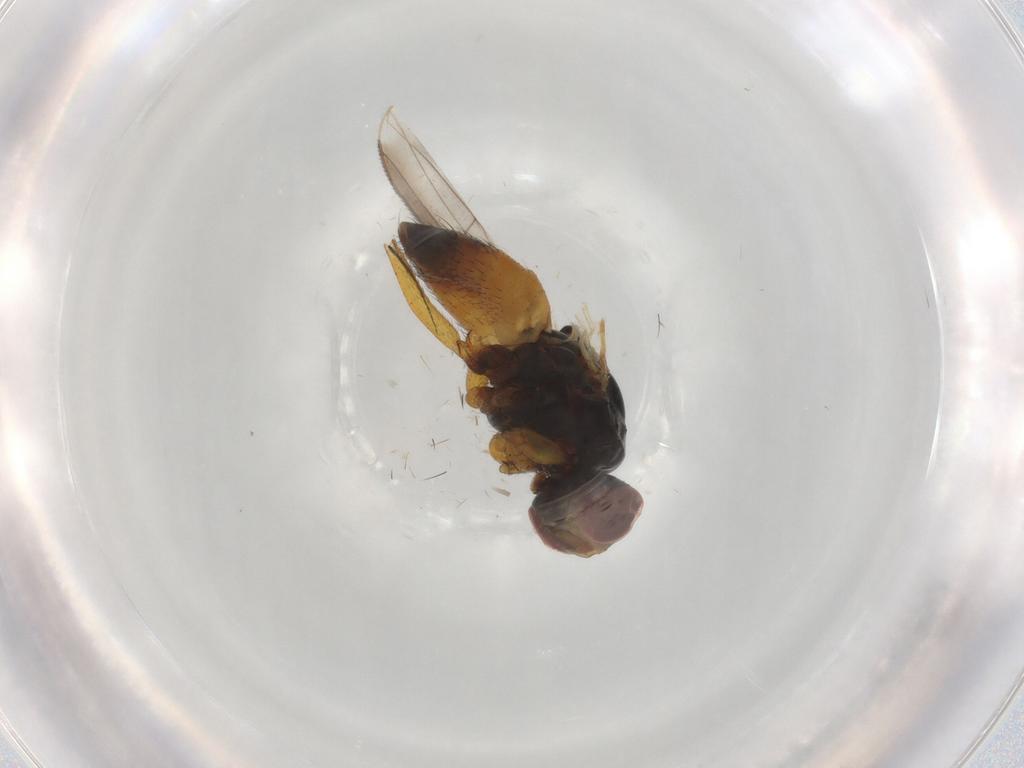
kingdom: Animalia
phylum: Arthropoda
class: Insecta
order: Diptera
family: Muscidae
